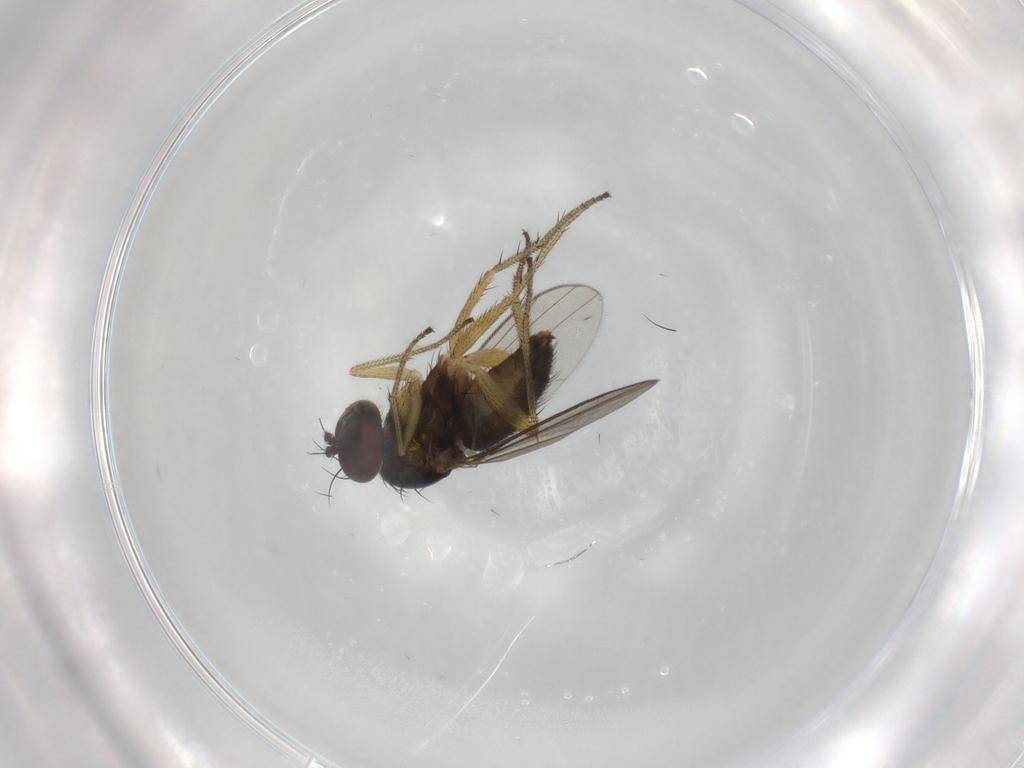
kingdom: Animalia
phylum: Arthropoda
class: Insecta
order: Diptera
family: Dolichopodidae
